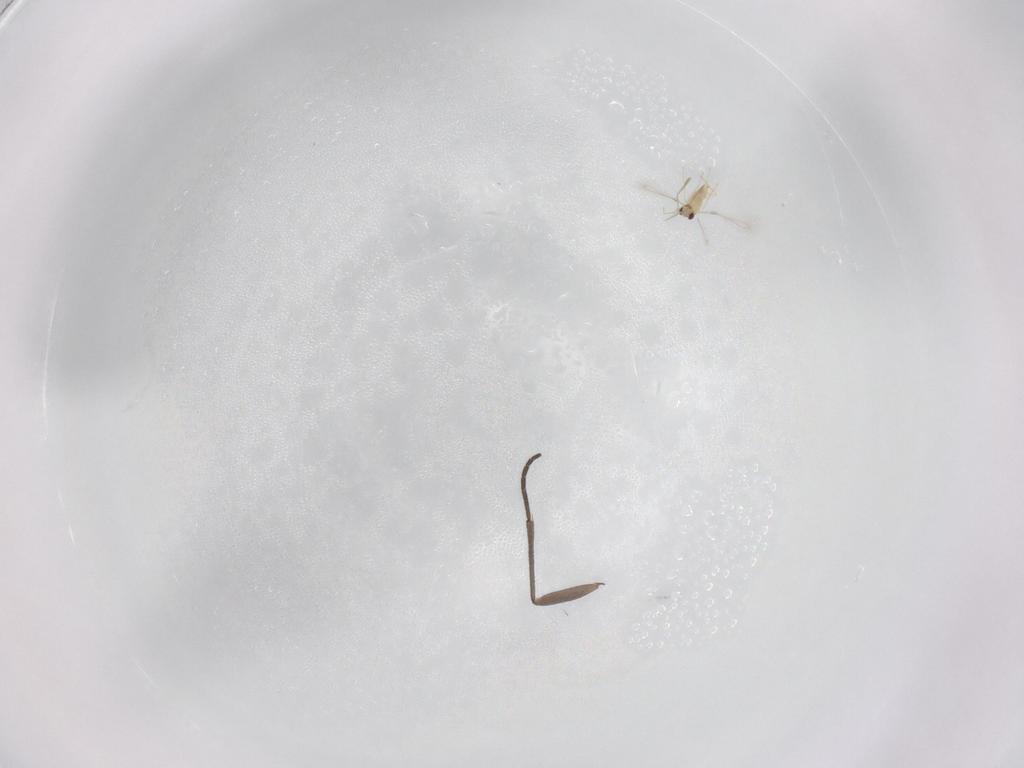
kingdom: Animalia
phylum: Arthropoda
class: Insecta
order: Hymenoptera
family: Mymaridae
